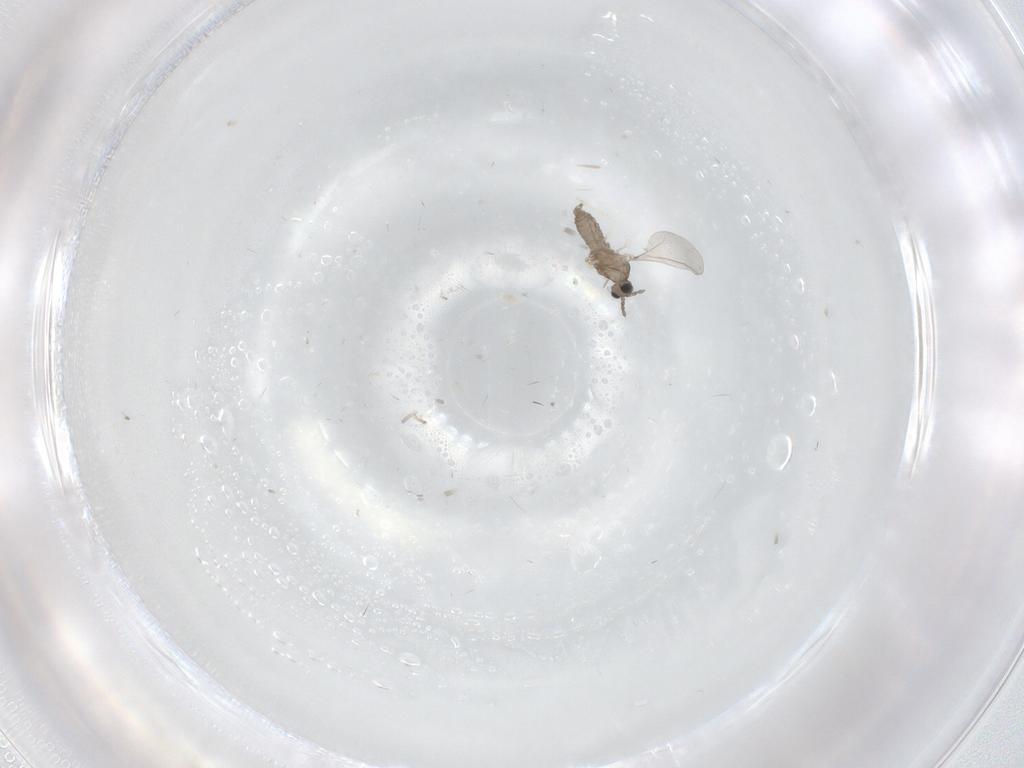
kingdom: Animalia
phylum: Arthropoda
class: Insecta
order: Diptera
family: Cecidomyiidae
